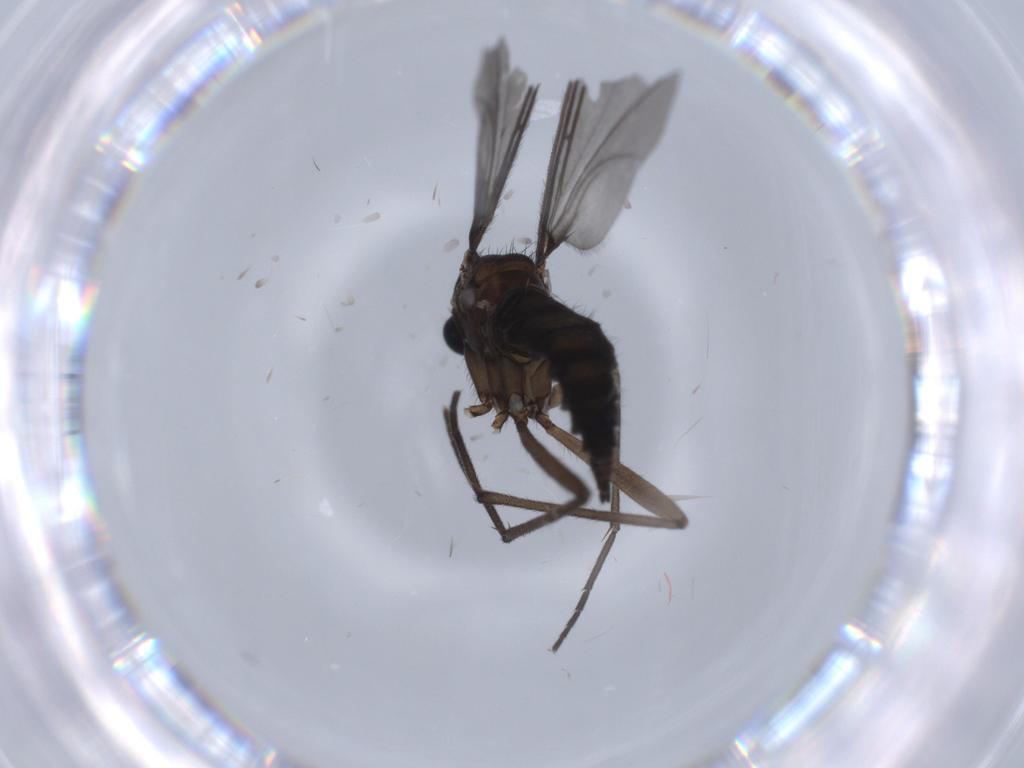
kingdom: Animalia
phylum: Arthropoda
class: Insecta
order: Diptera
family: Sciaridae
